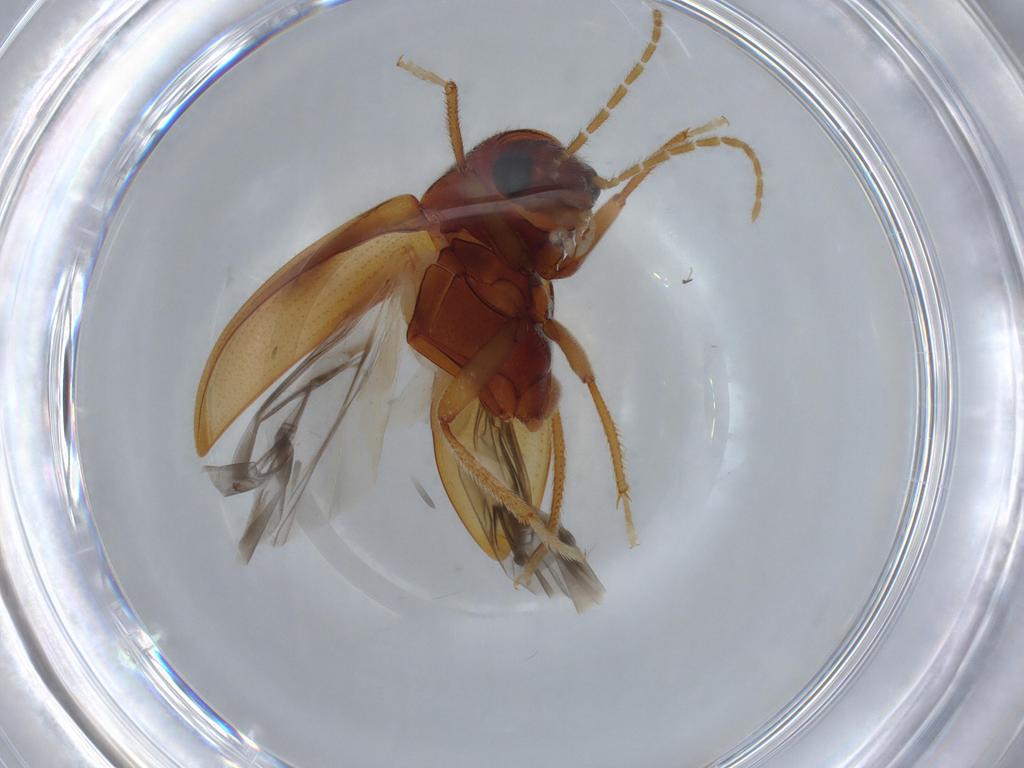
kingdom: Animalia
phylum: Arthropoda
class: Insecta
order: Coleoptera
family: Ptilodactylidae
